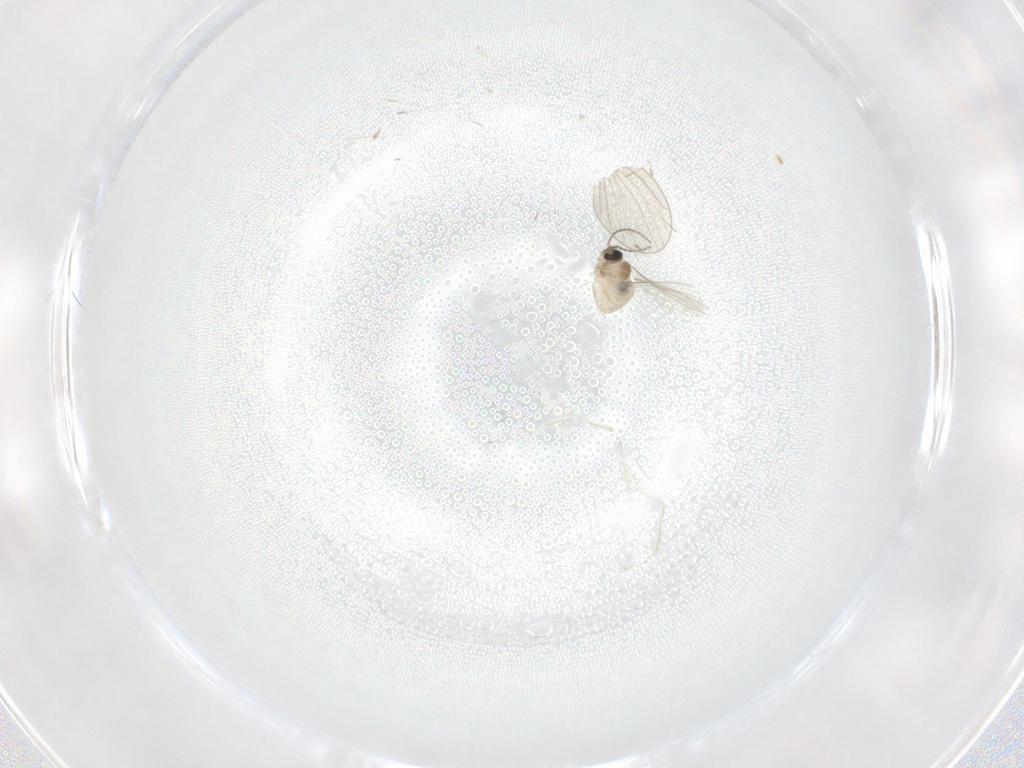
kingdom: Animalia
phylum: Arthropoda
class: Insecta
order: Diptera
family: Cecidomyiidae
